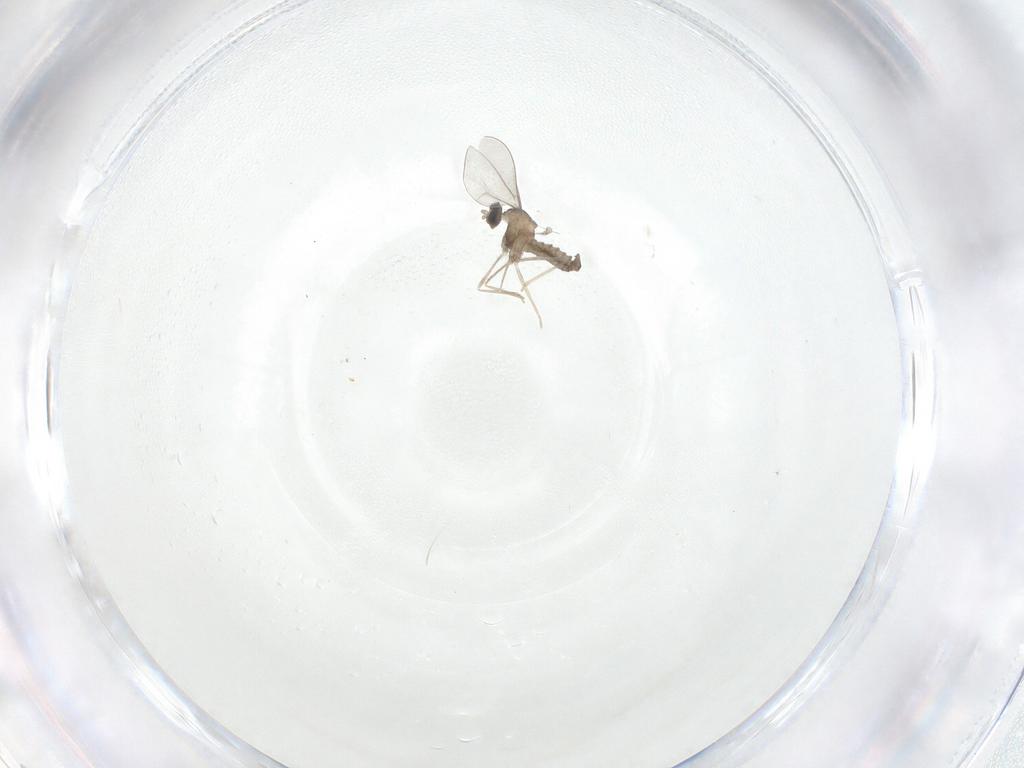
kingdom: Animalia
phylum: Arthropoda
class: Insecta
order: Diptera
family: Cecidomyiidae
